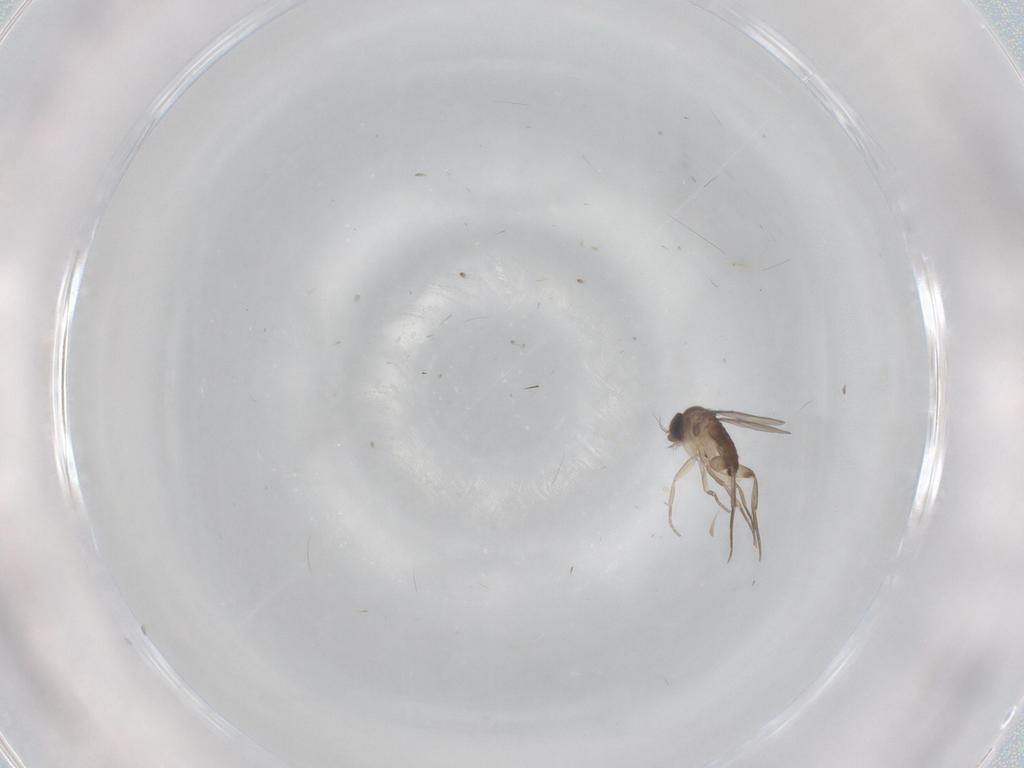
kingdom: Animalia
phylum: Arthropoda
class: Insecta
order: Diptera
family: Phoridae
